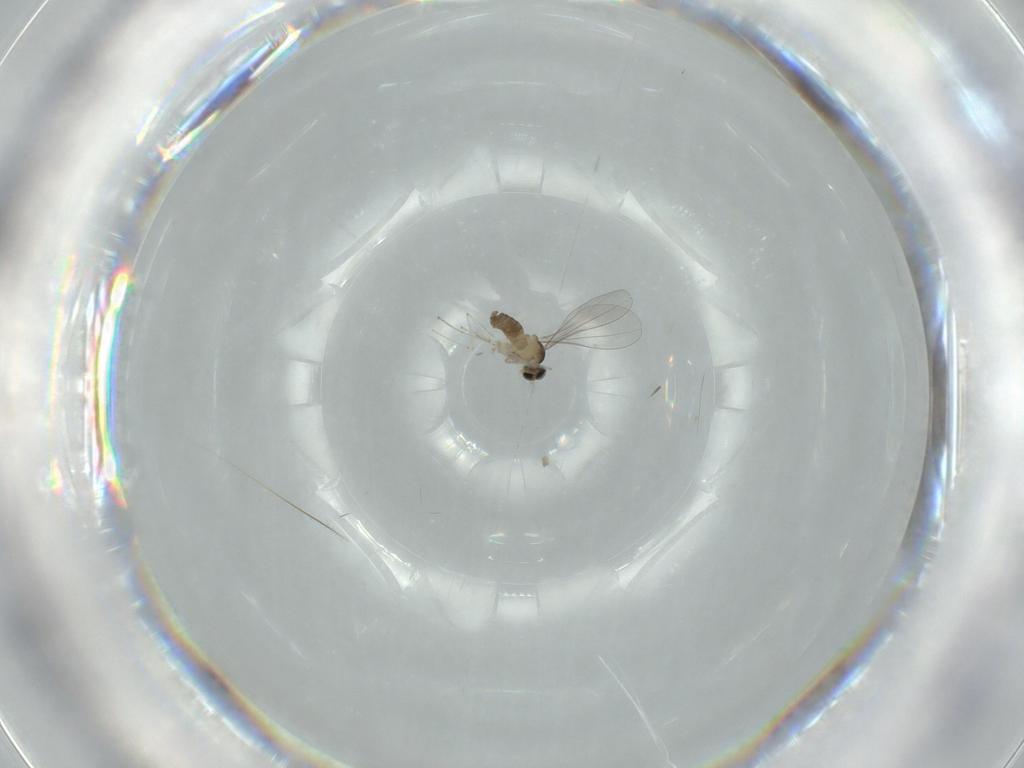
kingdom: Animalia
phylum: Arthropoda
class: Insecta
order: Diptera
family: Cecidomyiidae
